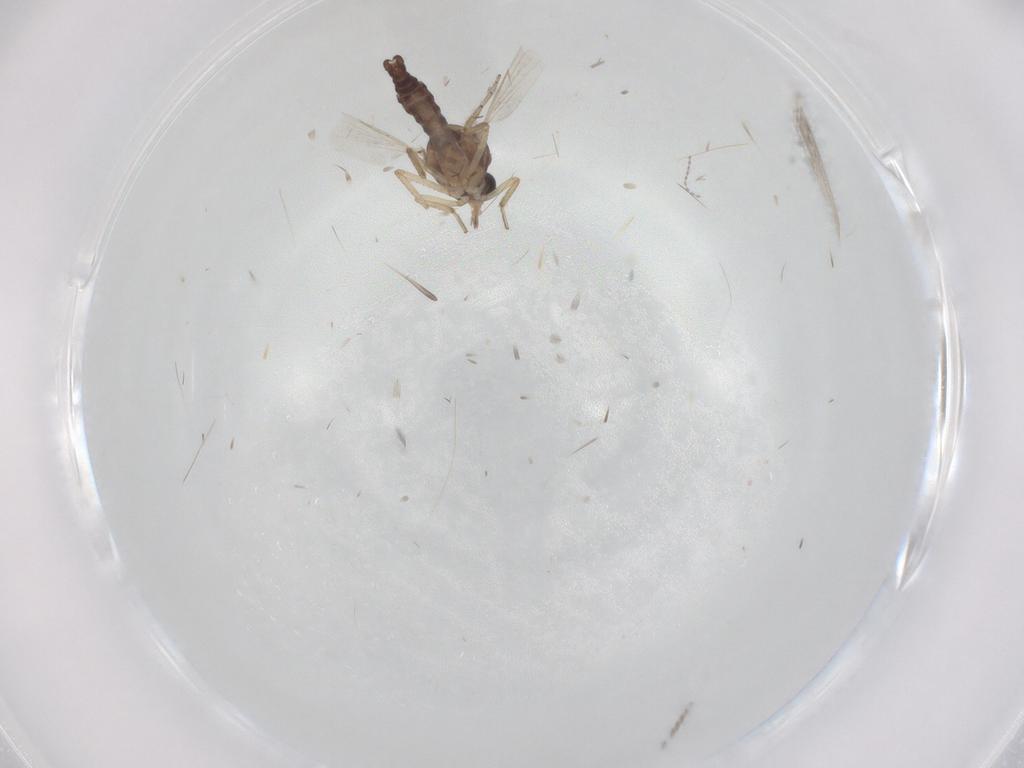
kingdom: Animalia
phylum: Arthropoda
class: Insecta
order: Diptera
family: Ceratopogonidae
